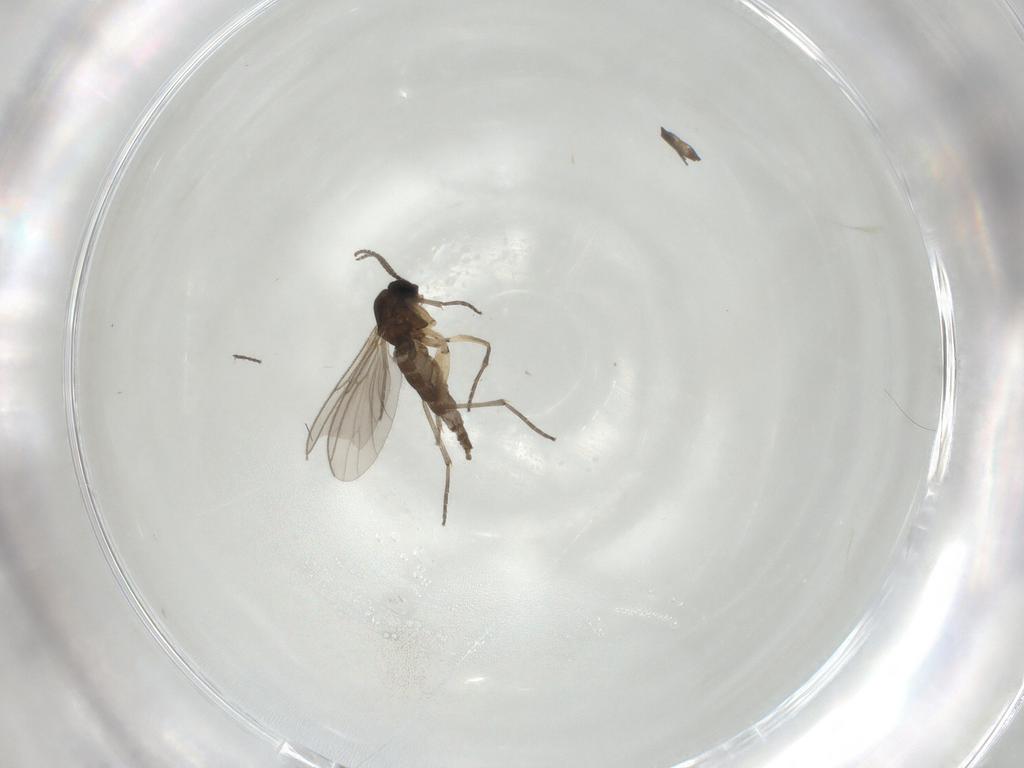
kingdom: Animalia
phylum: Arthropoda
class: Insecta
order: Diptera
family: Sciaridae
